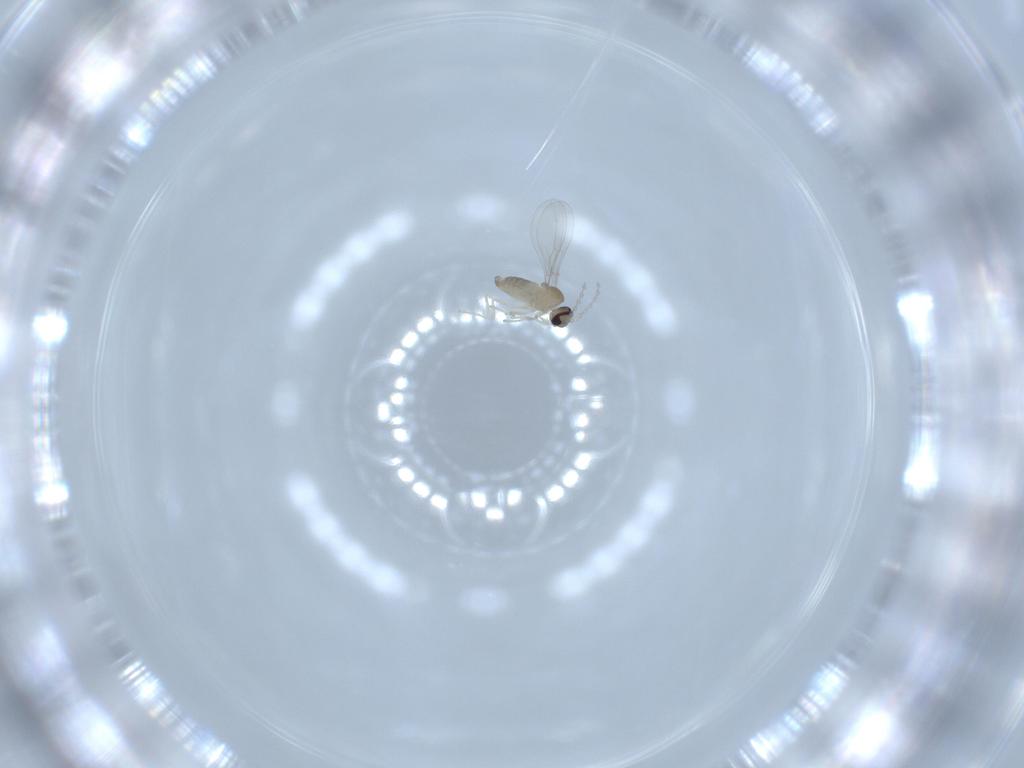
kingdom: Animalia
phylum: Arthropoda
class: Insecta
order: Diptera
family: Cecidomyiidae
